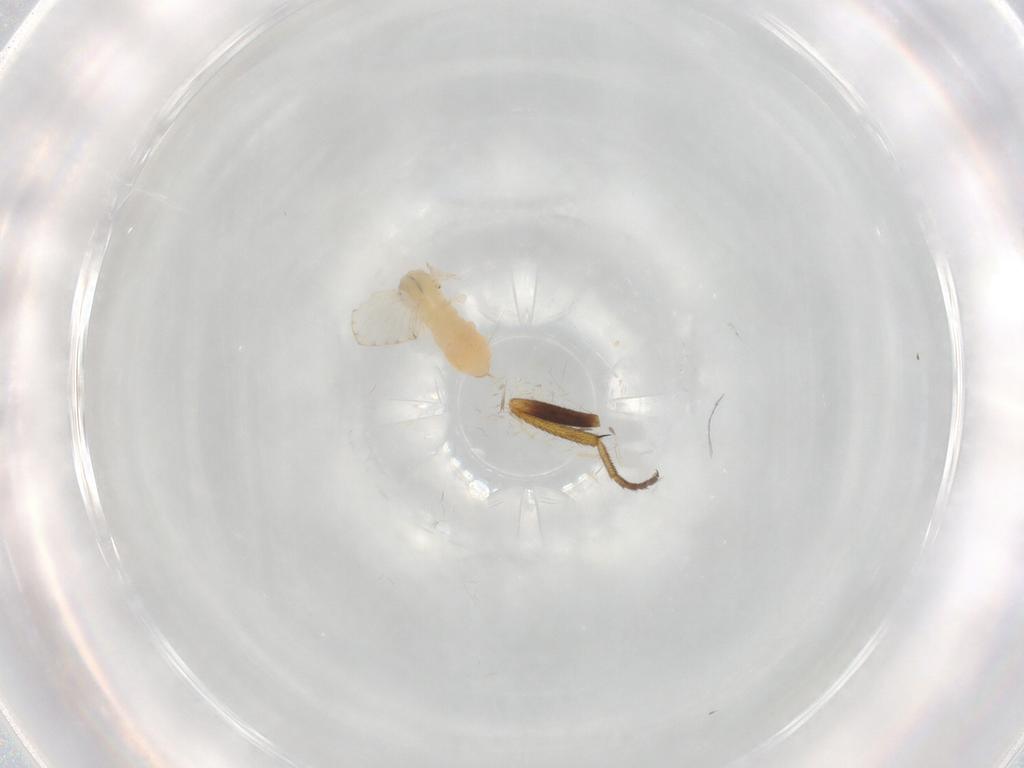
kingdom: Animalia
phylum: Arthropoda
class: Insecta
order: Diptera
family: Psychodidae
